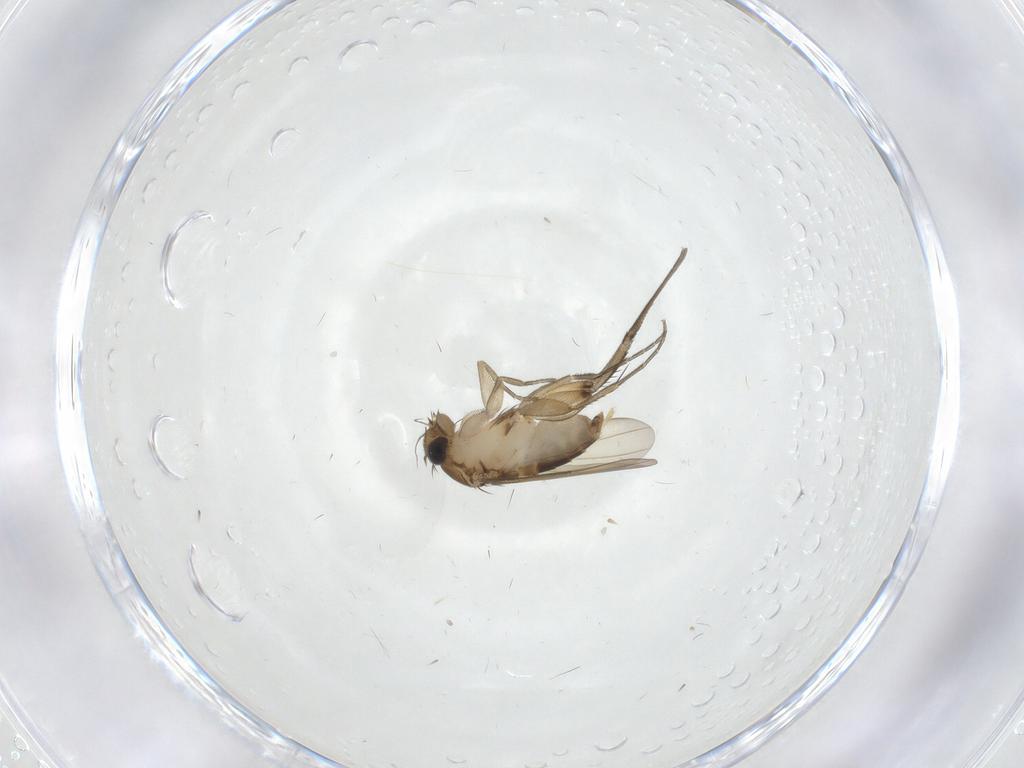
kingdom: Animalia
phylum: Arthropoda
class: Insecta
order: Diptera
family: Phoridae
